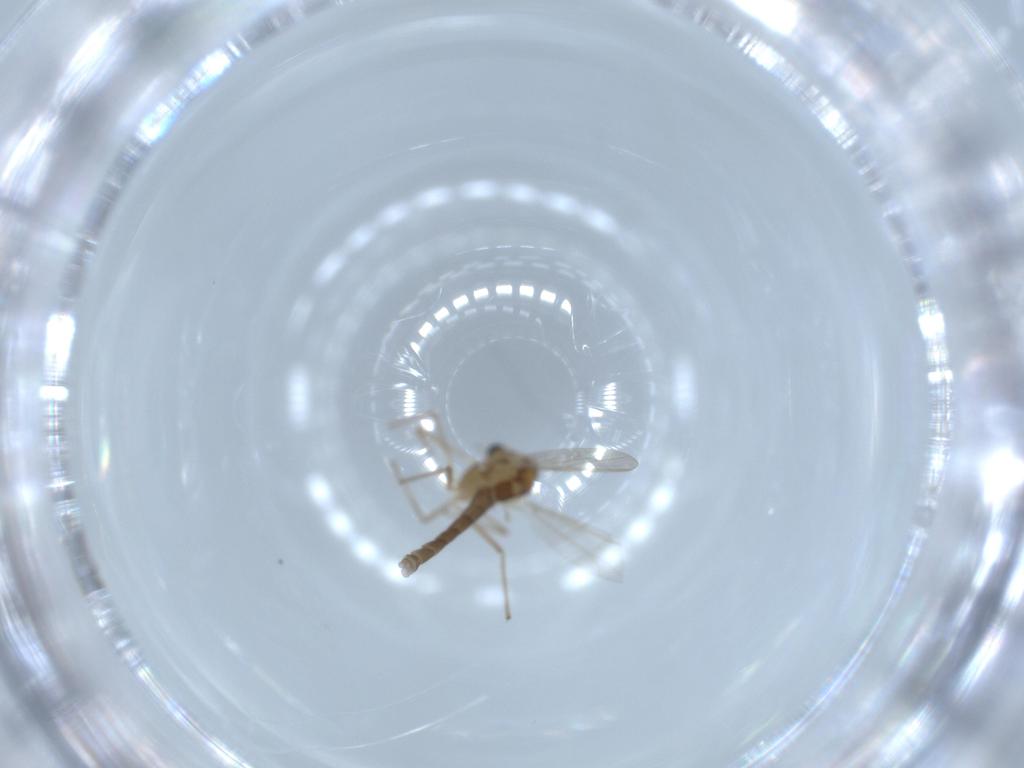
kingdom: Animalia
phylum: Arthropoda
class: Insecta
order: Diptera
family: Chironomidae
